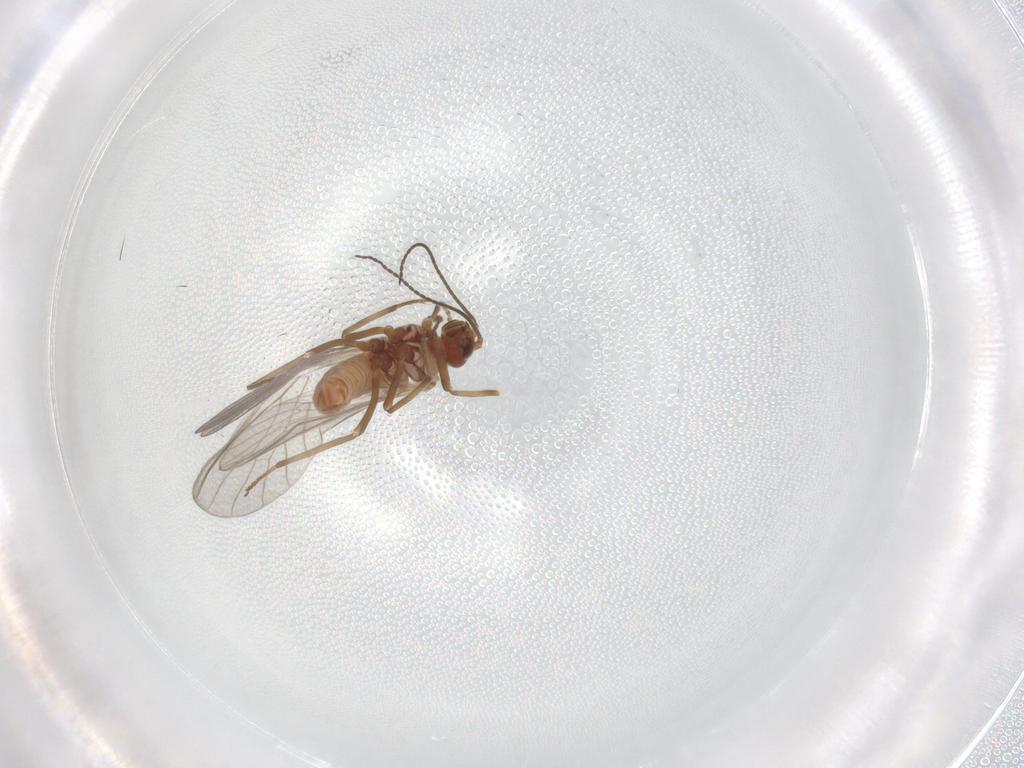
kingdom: Animalia
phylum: Arthropoda
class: Insecta
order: Neuroptera
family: Coniopterygidae
